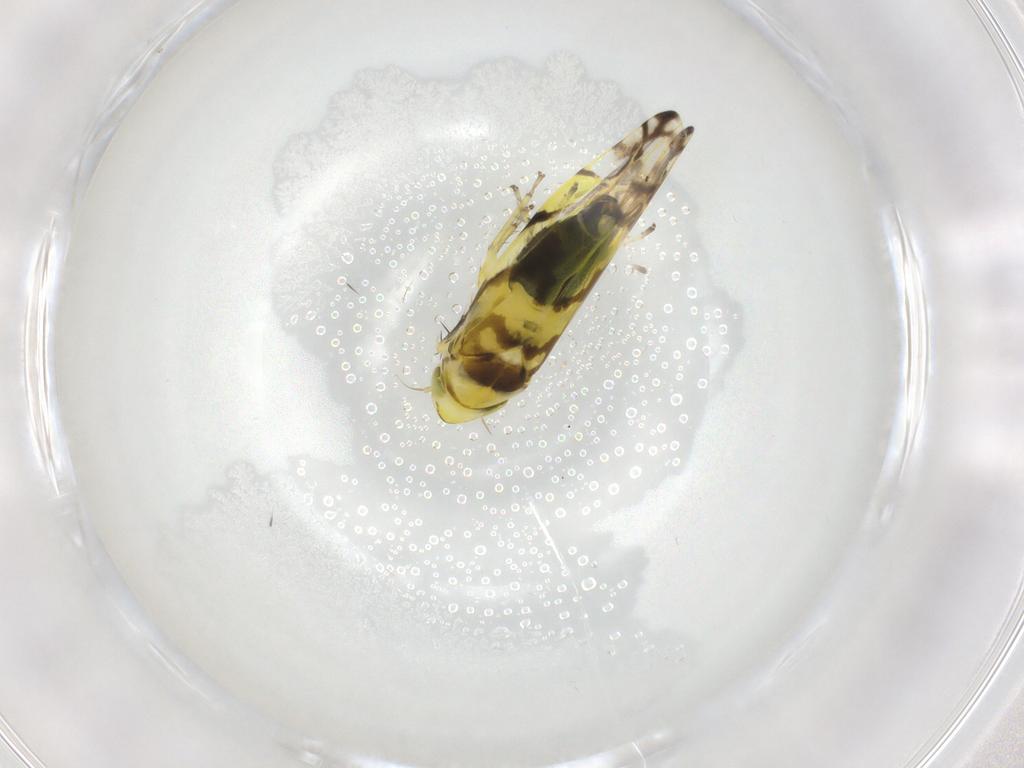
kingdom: Animalia
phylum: Arthropoda
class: Insecta
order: Hemiptera
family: Cicadellidae
